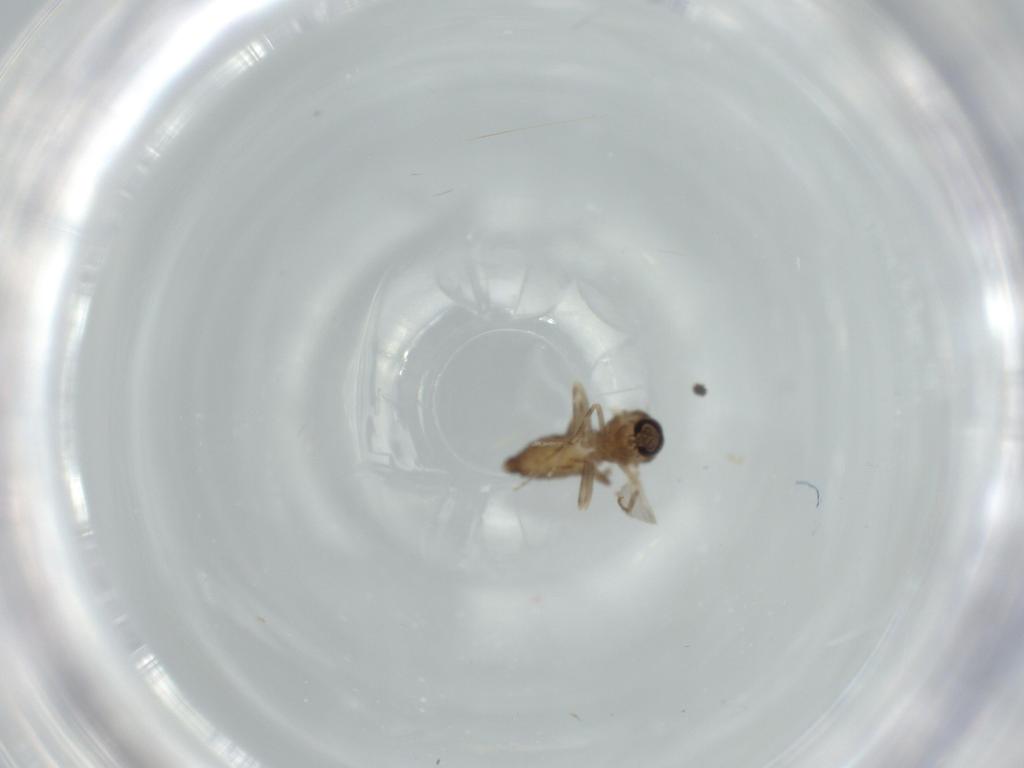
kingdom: Animalia
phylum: Arthropoda
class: Insecta
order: Diptera
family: Ceratopogonidae
